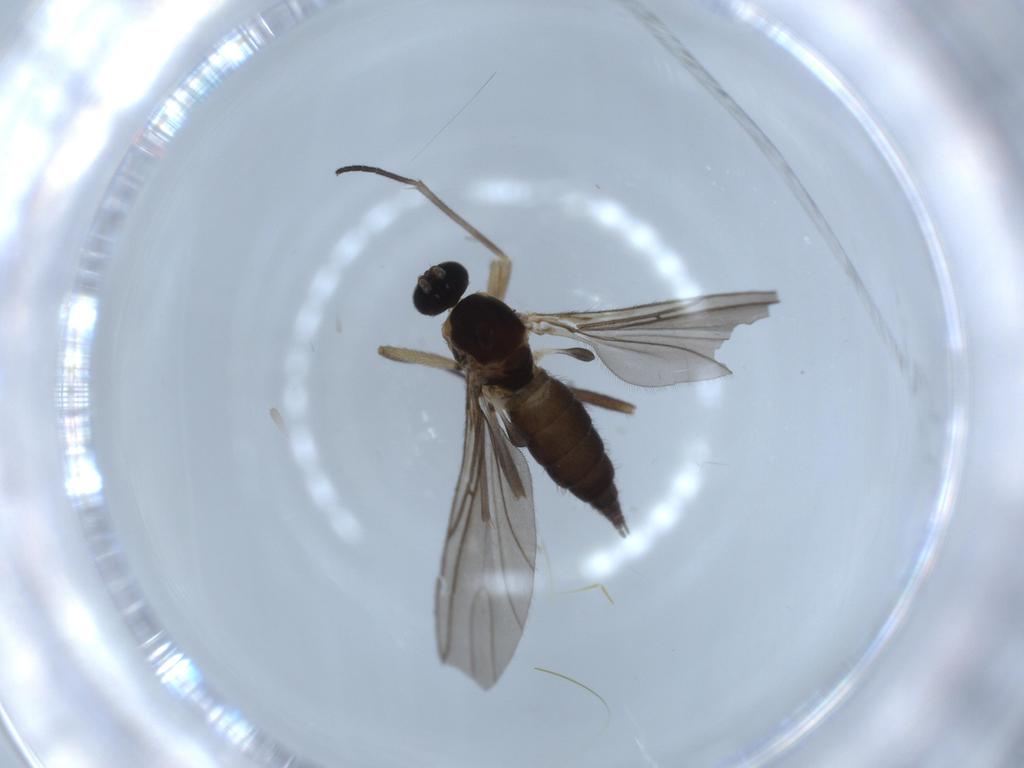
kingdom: Animalia
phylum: Arthropoda
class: Insecta
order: Diptera
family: Sciaridae
